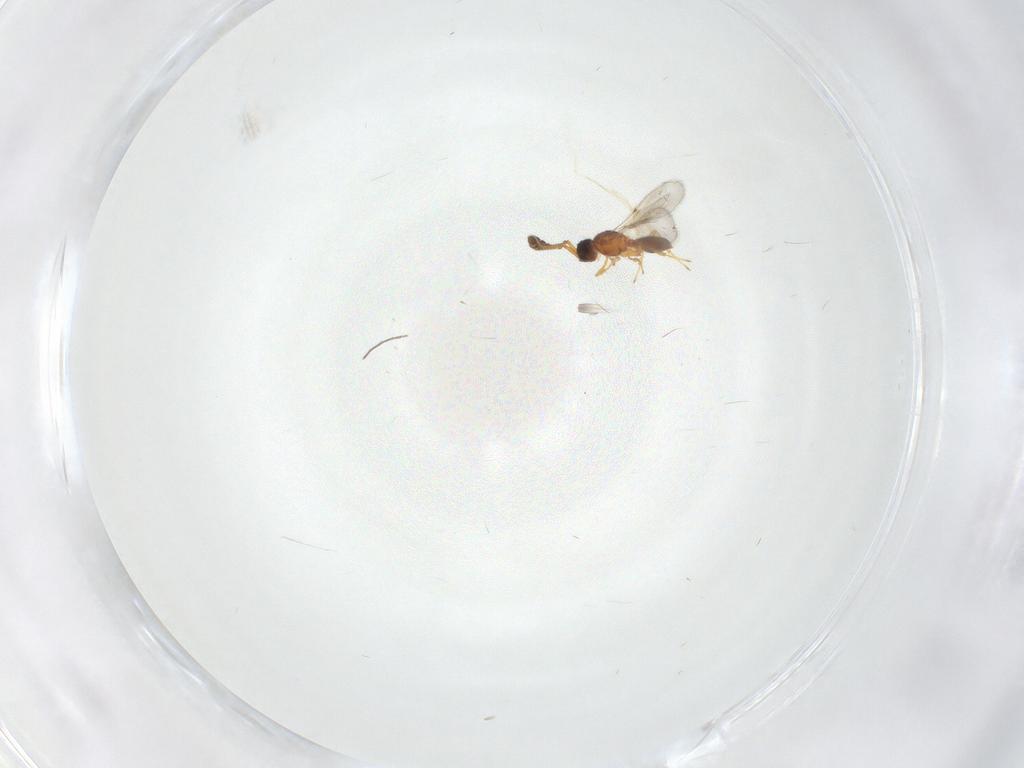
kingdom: Animalia
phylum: Arthropoda
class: Insecta
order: Hymenoptera
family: Diapriidae
